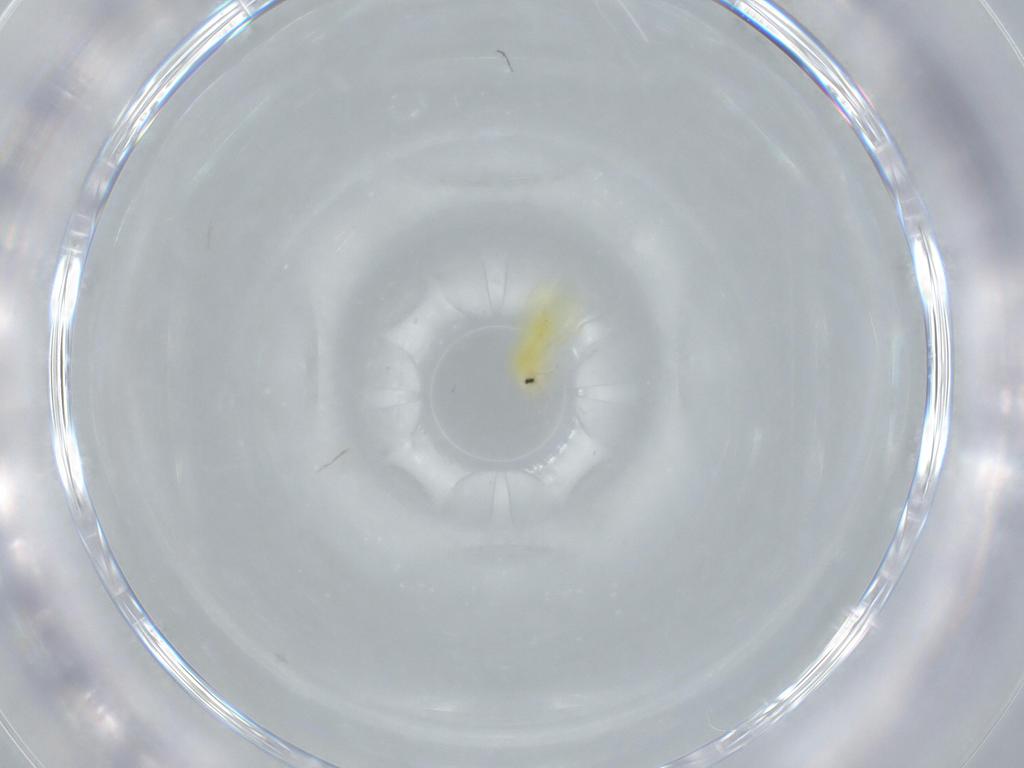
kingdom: Animalia
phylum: Arthropoda
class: Insecta
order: Hemiptera
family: Aleyrodidae
